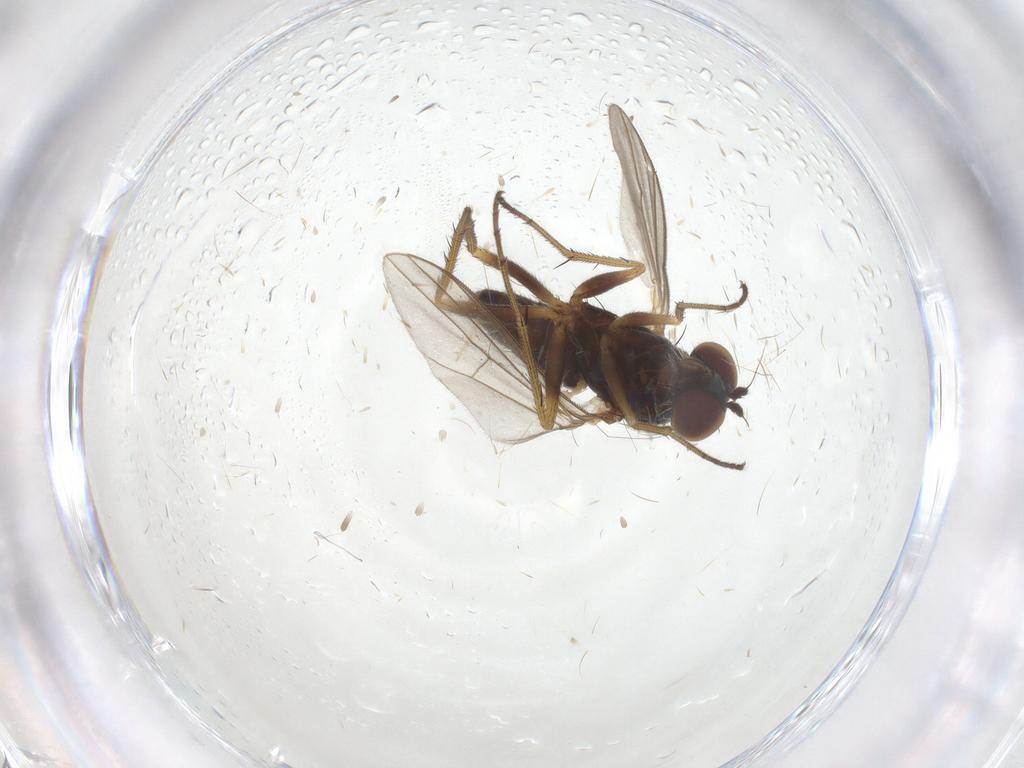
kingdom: Animalia
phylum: Arthropoda
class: Insecta
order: Diptera
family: Dolichopodidae
